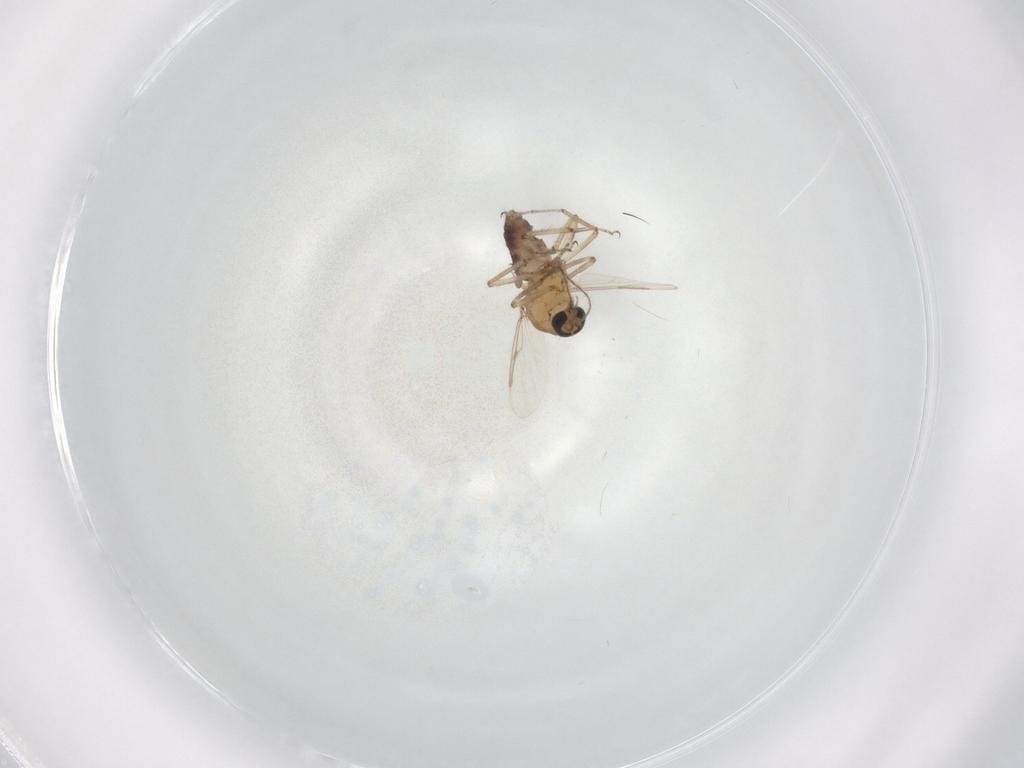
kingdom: Animalia
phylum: Arthropoda
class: Insecta
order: Diptera
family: Ceratopogonidae
